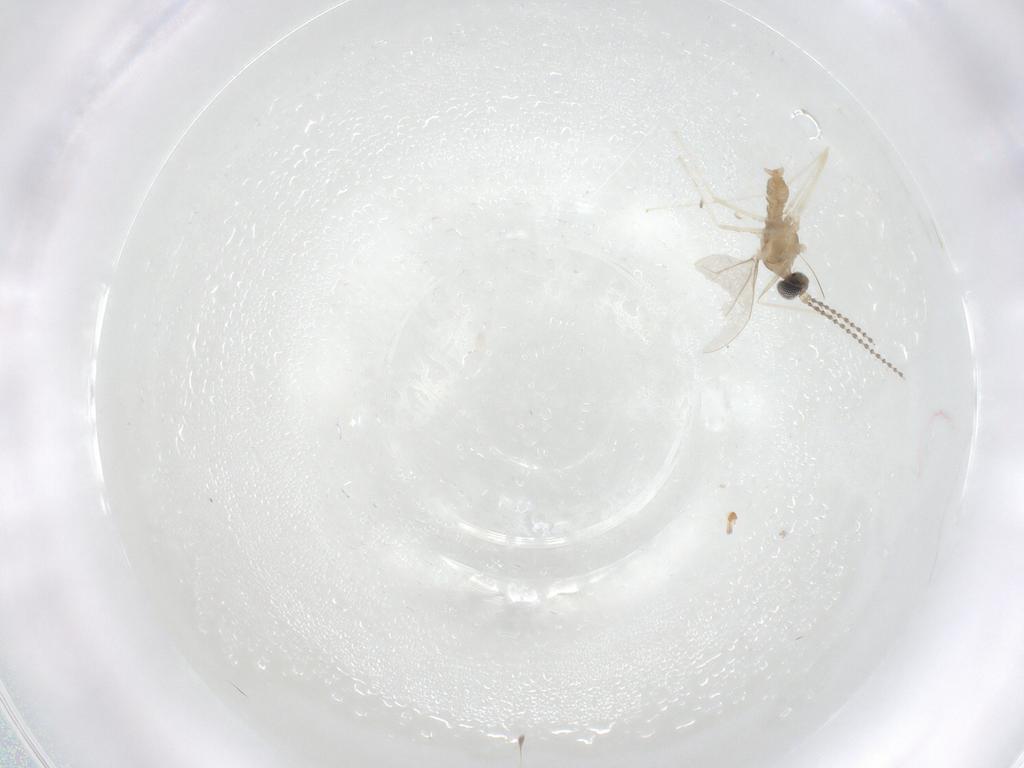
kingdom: Animalia
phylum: Arthropoda
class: Insecta
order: Diptera
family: Cecidomyiidae
